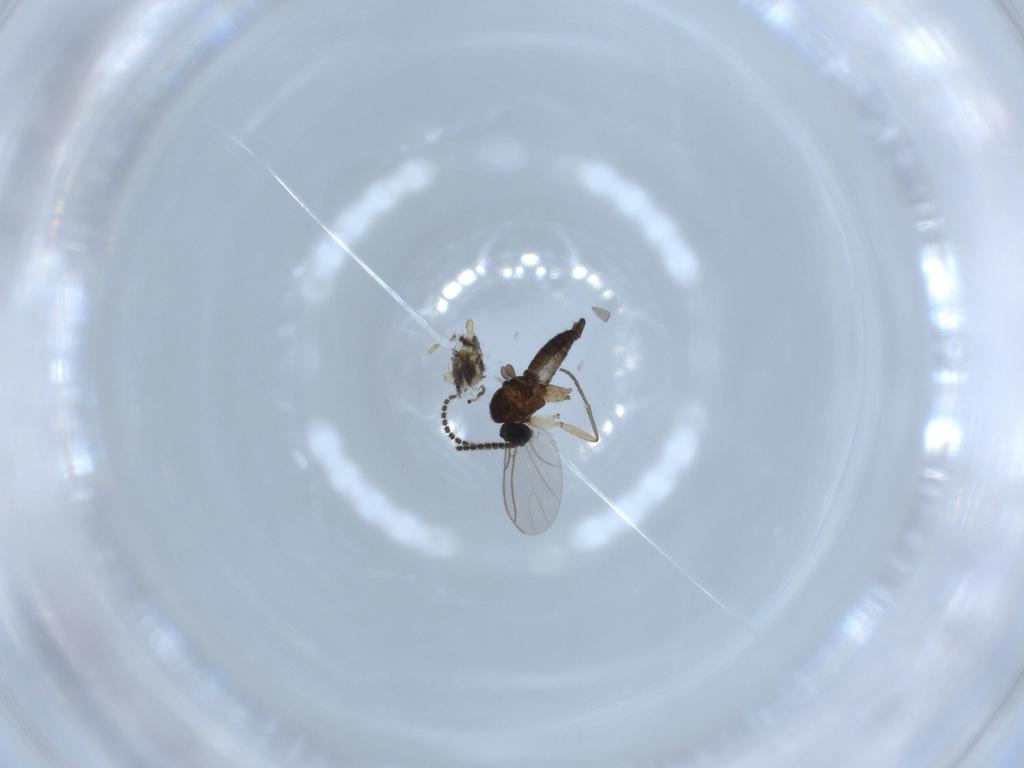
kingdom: Animalia
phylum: Arthropoda
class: Insecta
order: Diptera
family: Sciaridae
